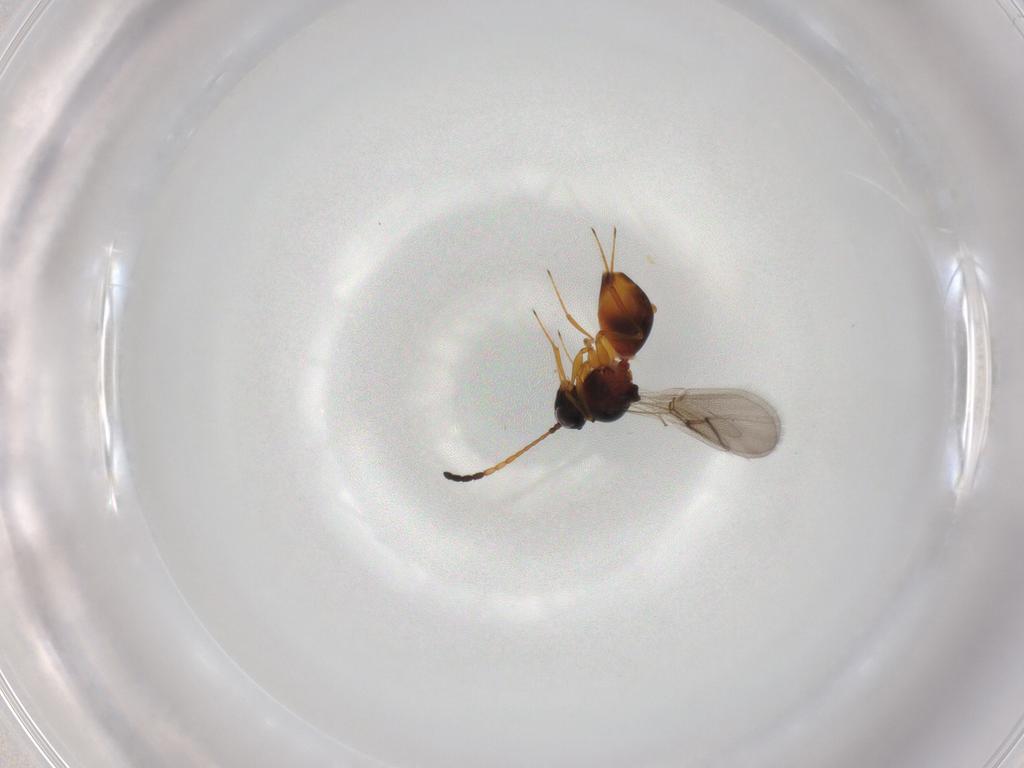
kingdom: Animalia
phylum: Arthropoda
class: Insecta
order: Hymenoptera
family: Figitidae
